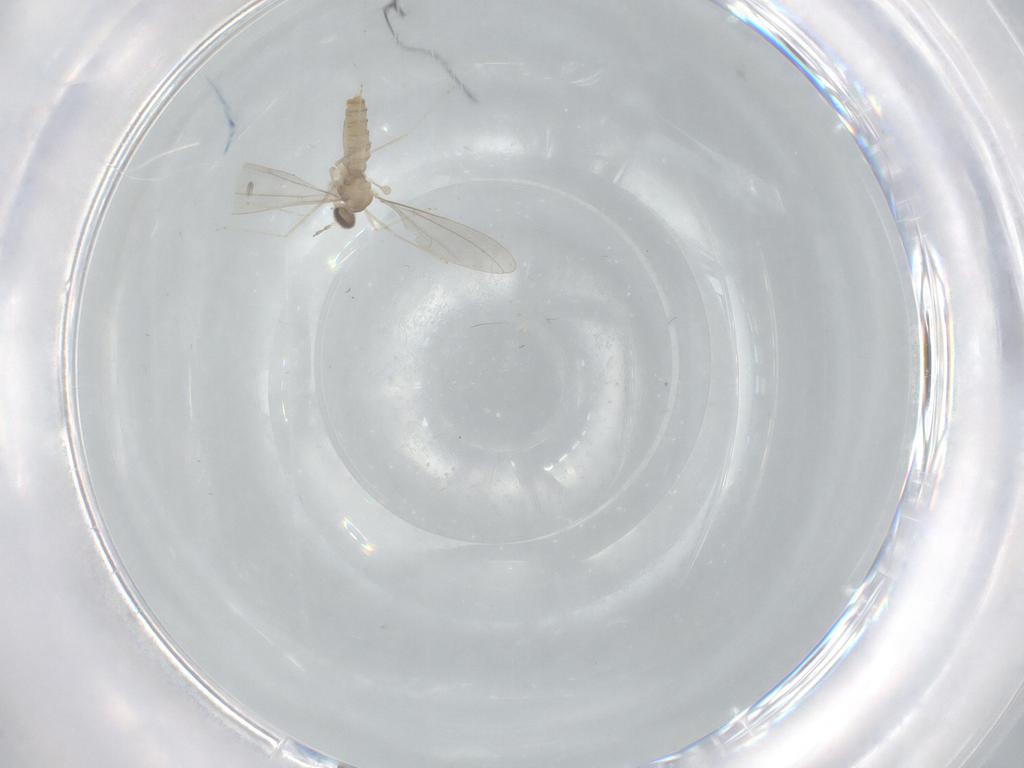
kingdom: Animalia
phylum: Arthropoda
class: Insecta
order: Diptera
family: Cecidomyiidae
